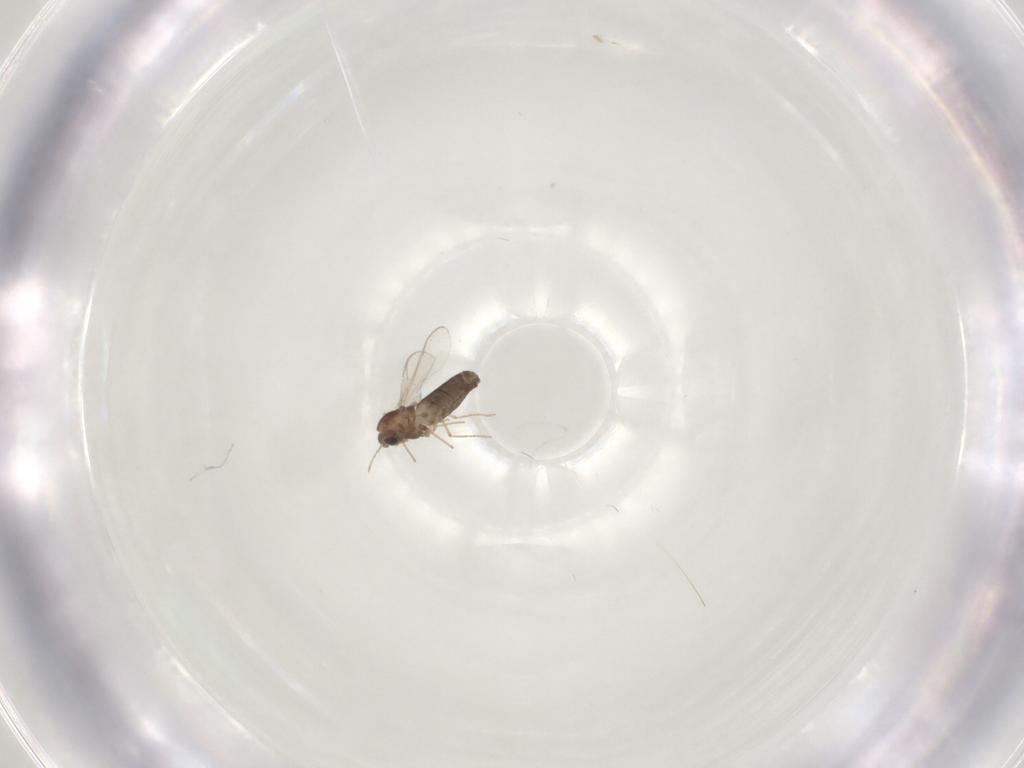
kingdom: Animalia
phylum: Arthropoda
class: Insecta
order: Diptera
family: Chironomidae
